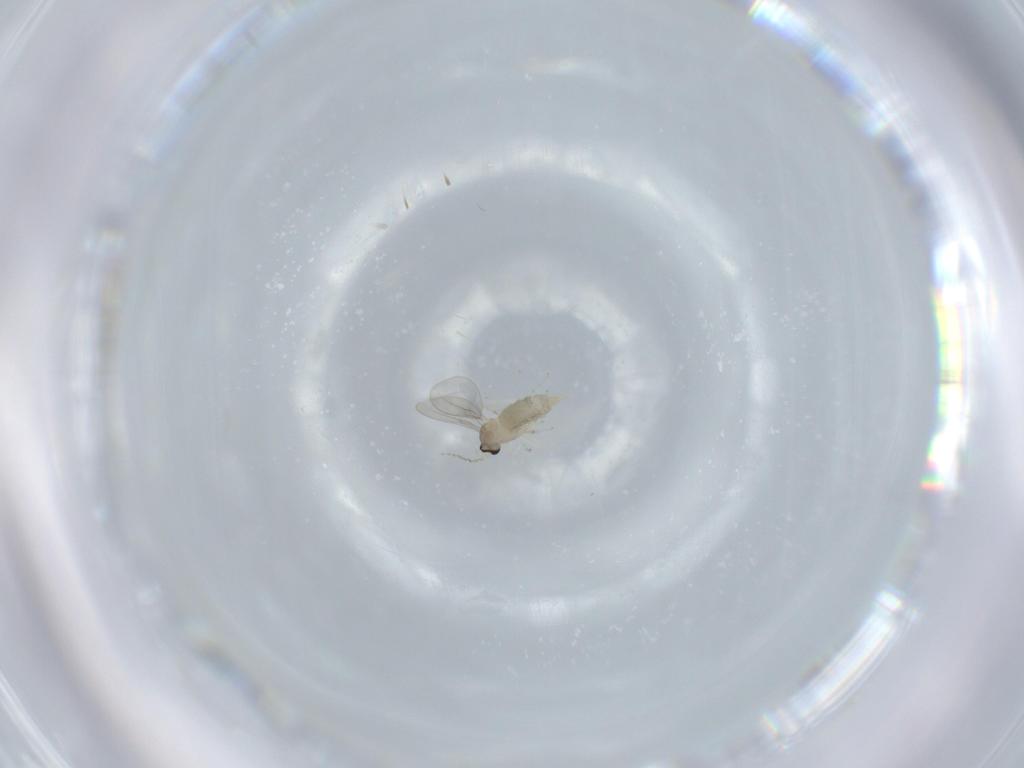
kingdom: Animalia
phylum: Arthropoda
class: Insecta
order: Diptera
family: Cecidomyiidae
